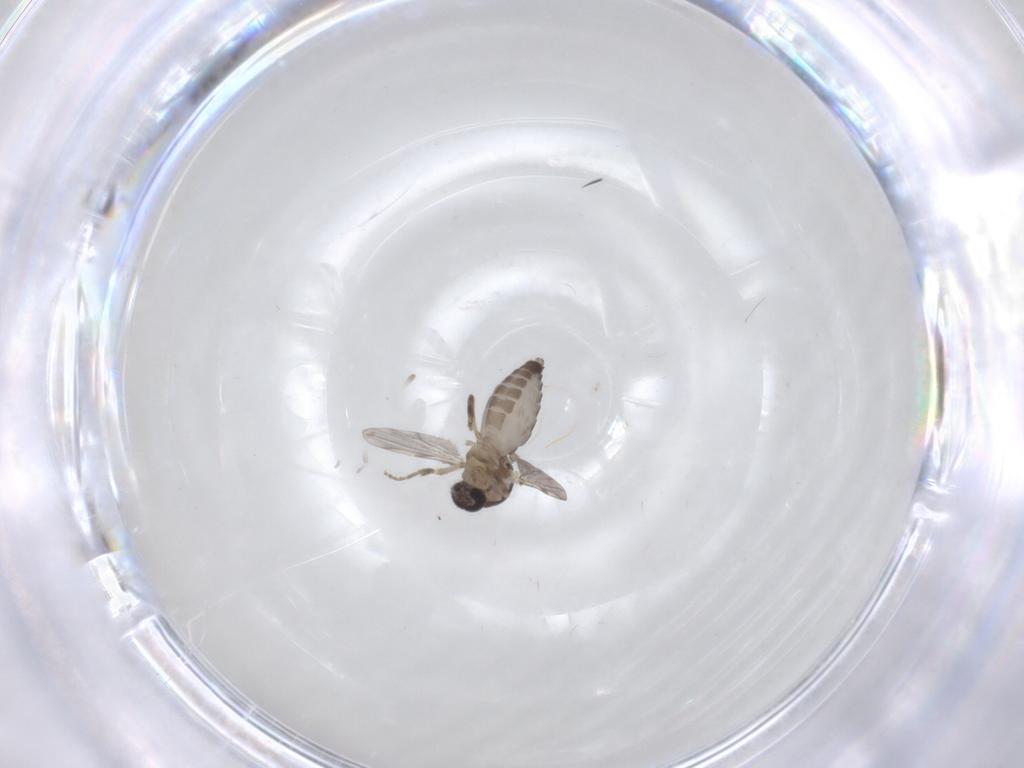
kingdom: Animalia
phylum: Arthropoda
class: Insecta
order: Diptera
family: Ceratopogonidae
